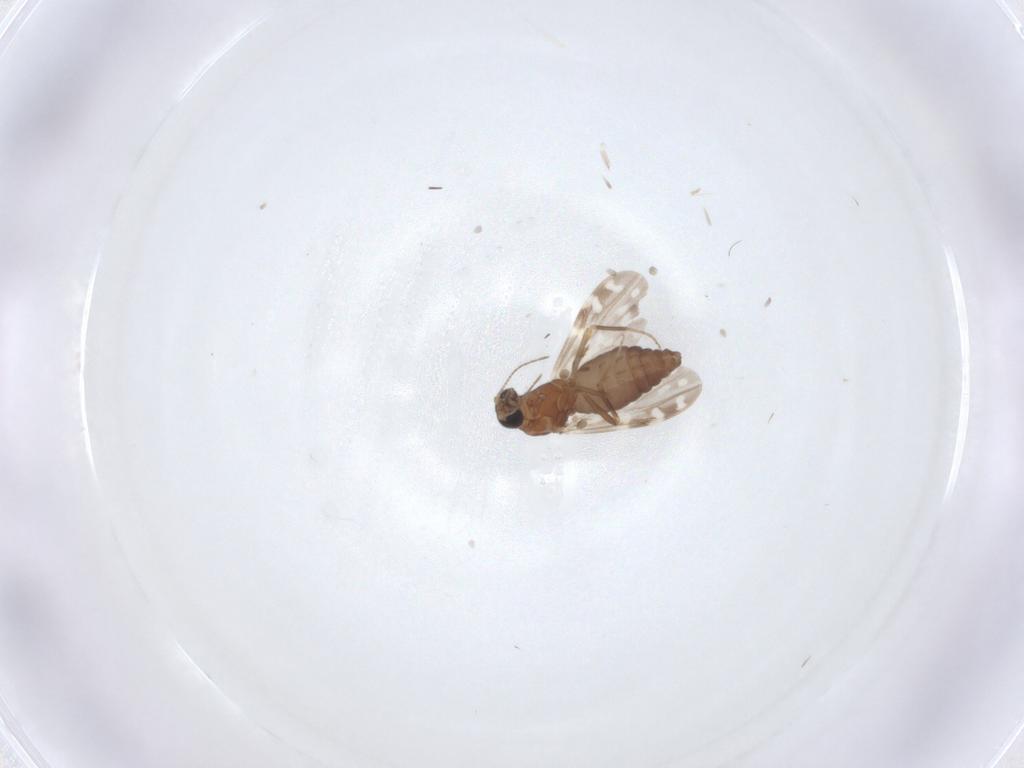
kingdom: Animalia
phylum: Arthropoda
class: Insecta
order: Diptera
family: Ceratopogonidae
